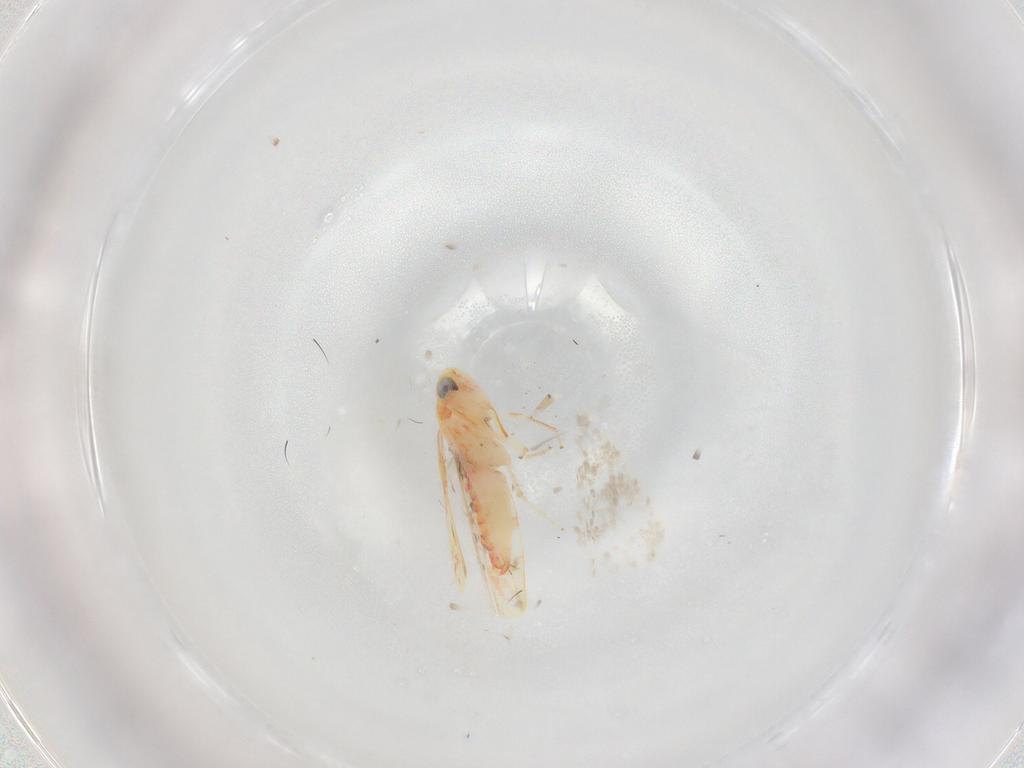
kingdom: Animalia
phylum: Arthropoda
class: Insecta
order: Hemiptera
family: Cicadellidae
